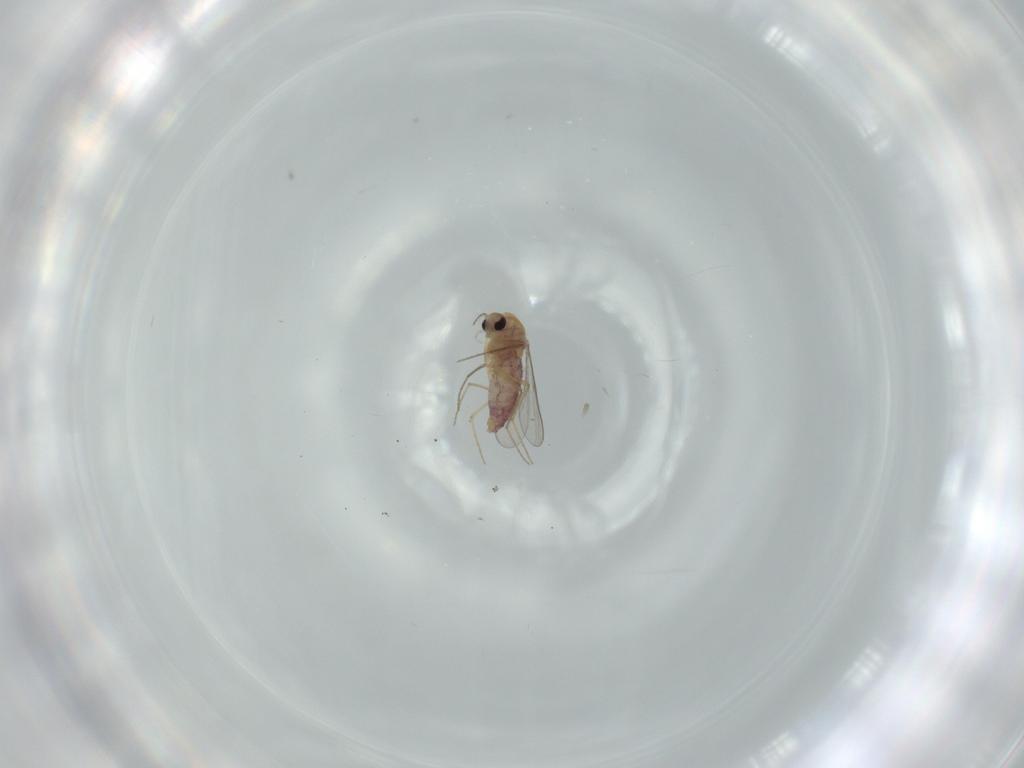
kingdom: Animalia
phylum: Arthropoda
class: Insecta
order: Diptera
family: Chironomidae
